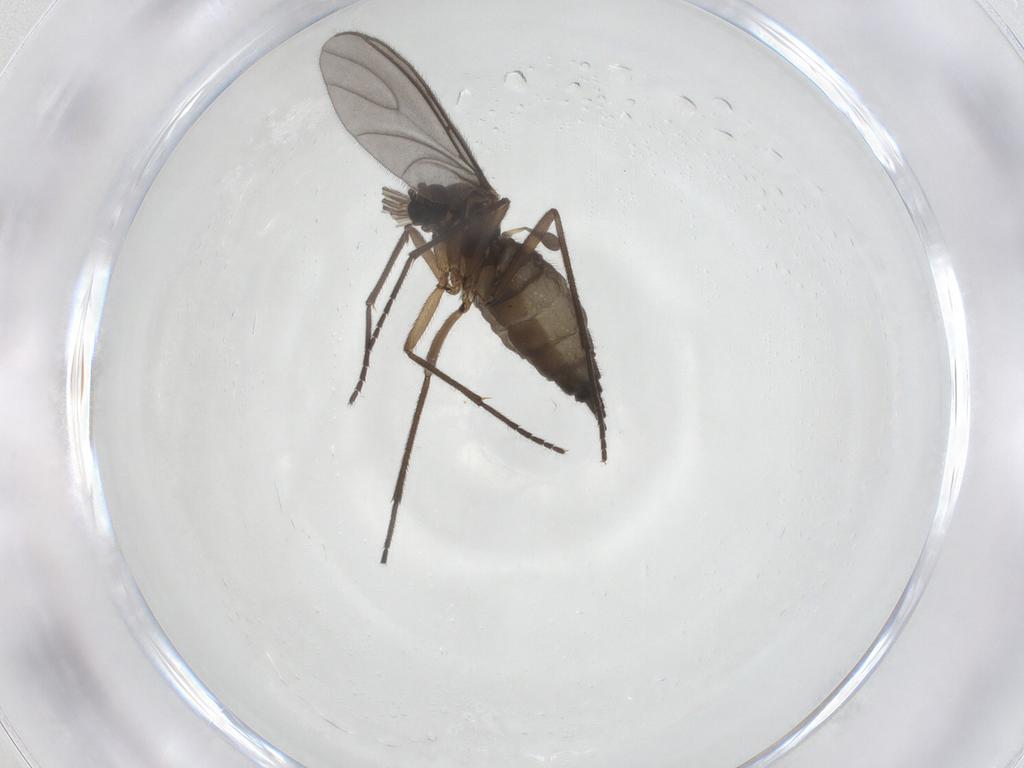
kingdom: Animalia
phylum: Arthropoda
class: Insecta
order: Diptera
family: Sciaridae
